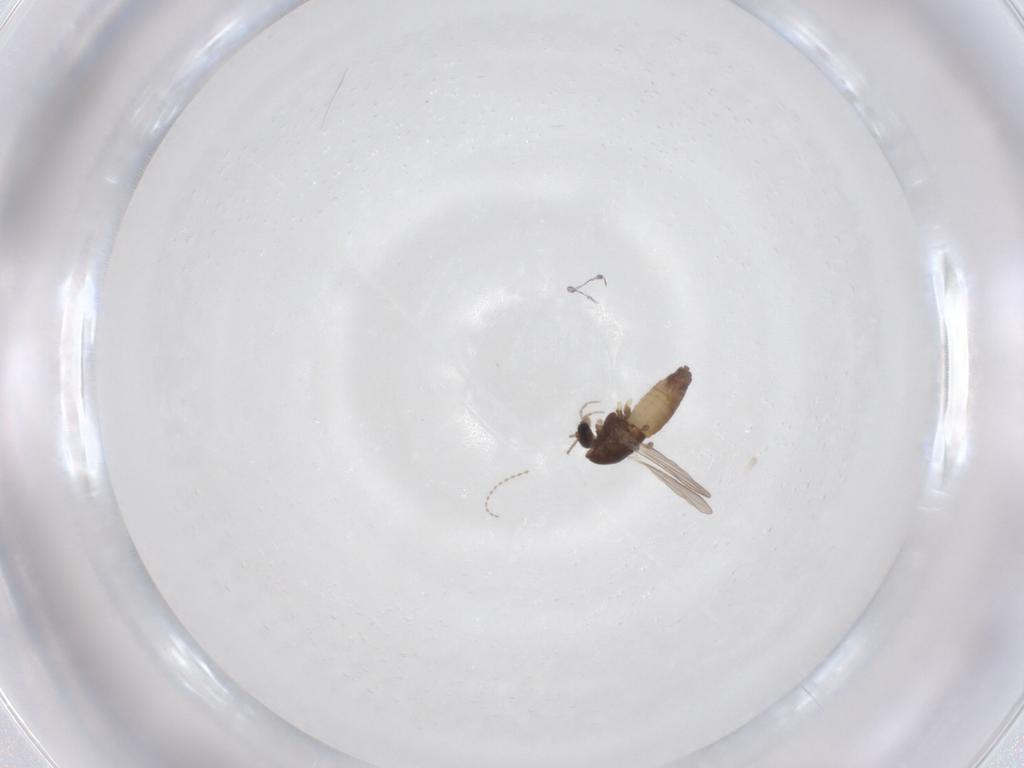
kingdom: Animalia
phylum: Arthropoda
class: Insecta
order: Diptera
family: Cecidomyiidae
